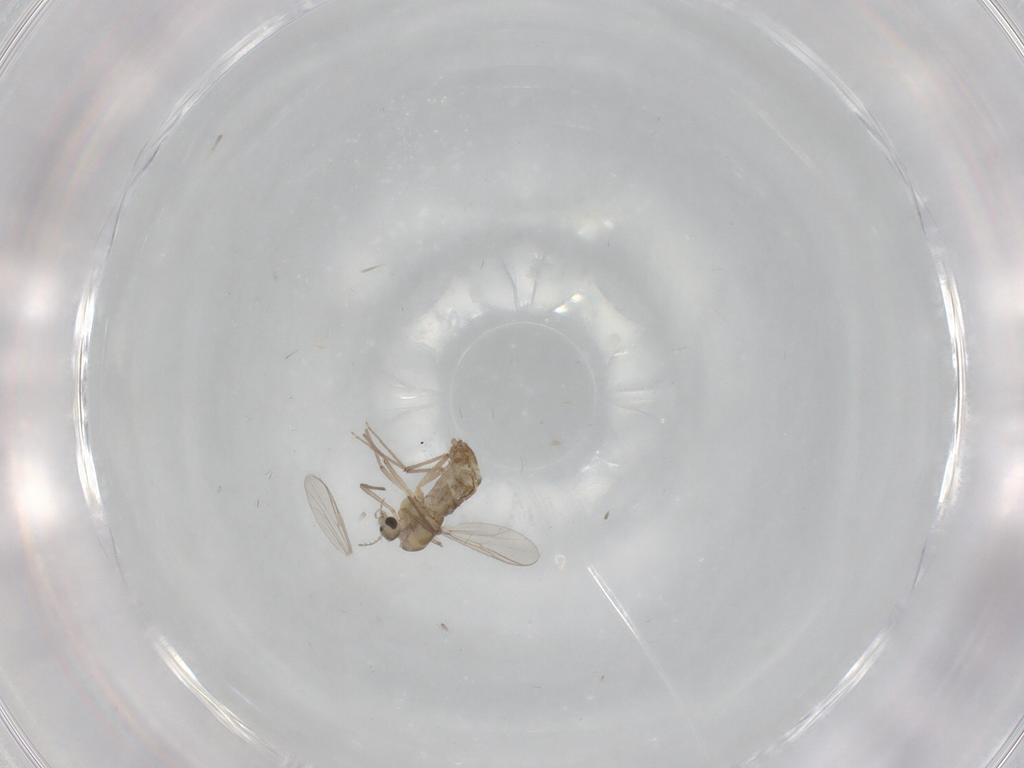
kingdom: Animalia
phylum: Arthropoda
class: Insecta
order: Diptera
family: Chironomidae
